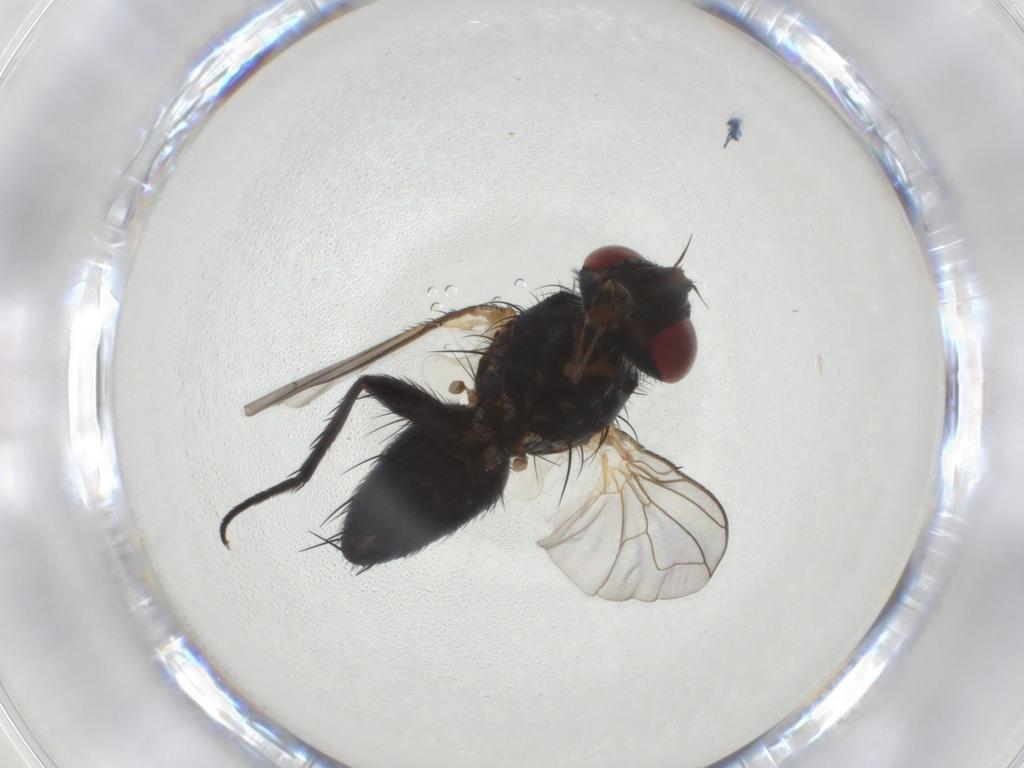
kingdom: Animalia
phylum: Arthropoda
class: Insecta
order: Diptera
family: Tachinidae
